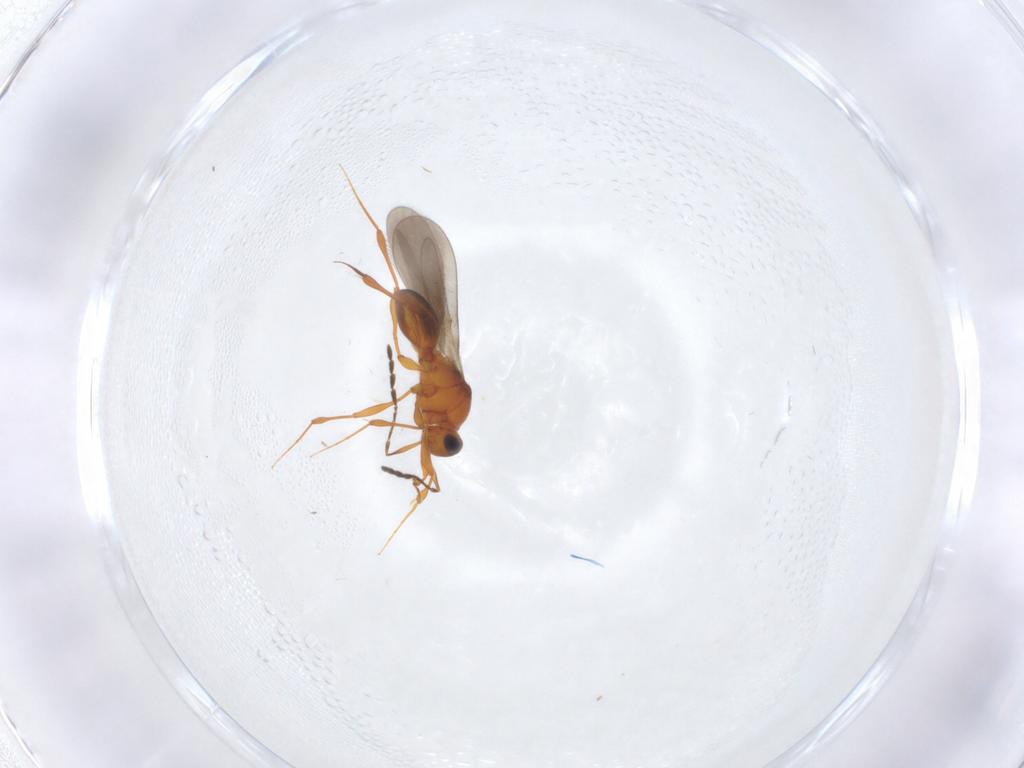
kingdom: Animalia
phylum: Arthropoda
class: Insecta
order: Hymenoptera
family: Platygastridae
